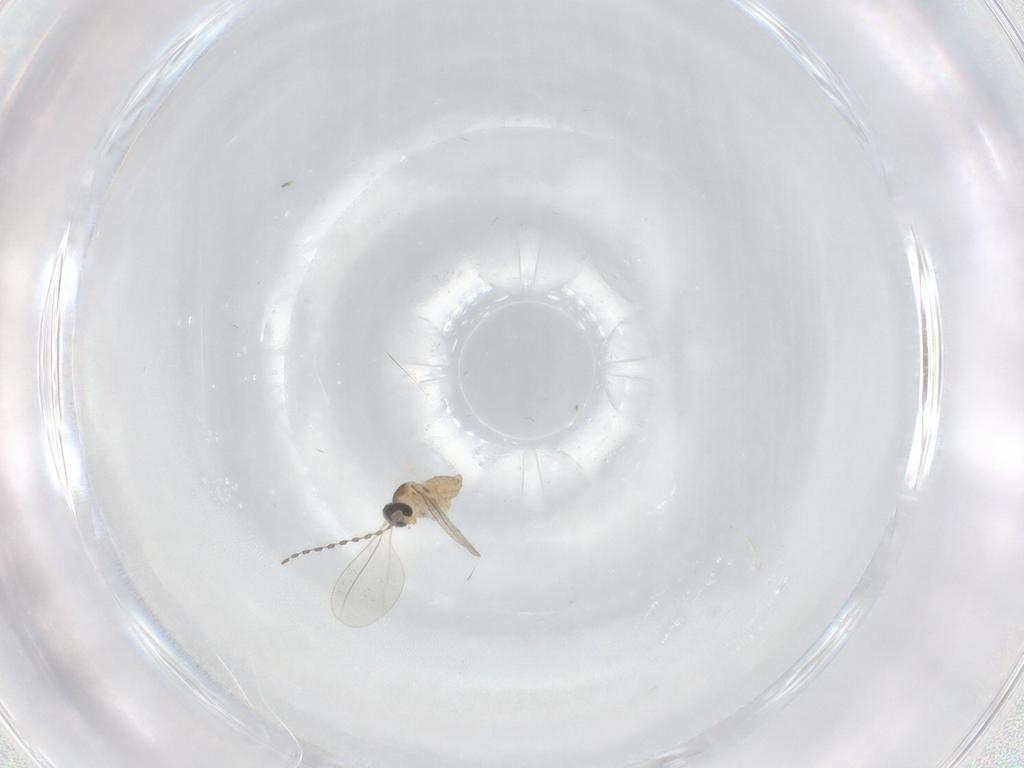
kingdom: Animalia
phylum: Arthropoda
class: Insecta
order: Diptera
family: Cecidomyiidae
